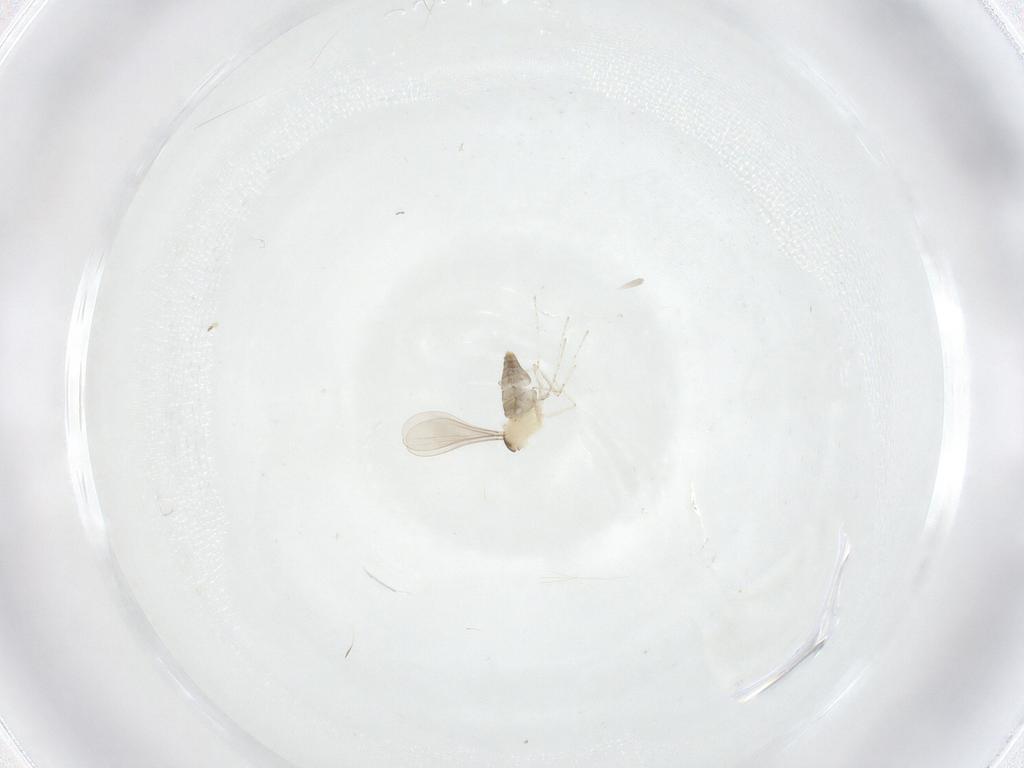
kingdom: Animalia
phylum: Arthropoda
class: Insecta
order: Diptera
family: Cecidomyiidae
